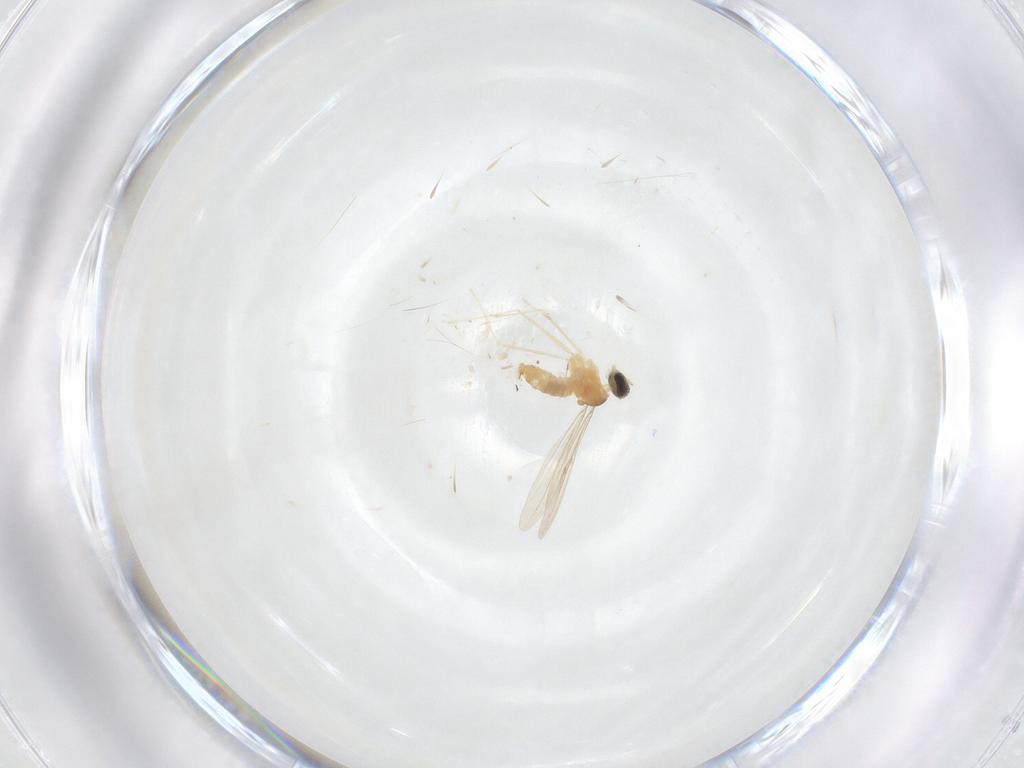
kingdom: Animalia
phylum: Arthropoda
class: Insecta
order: Diptera
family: Cecidomyiidae
